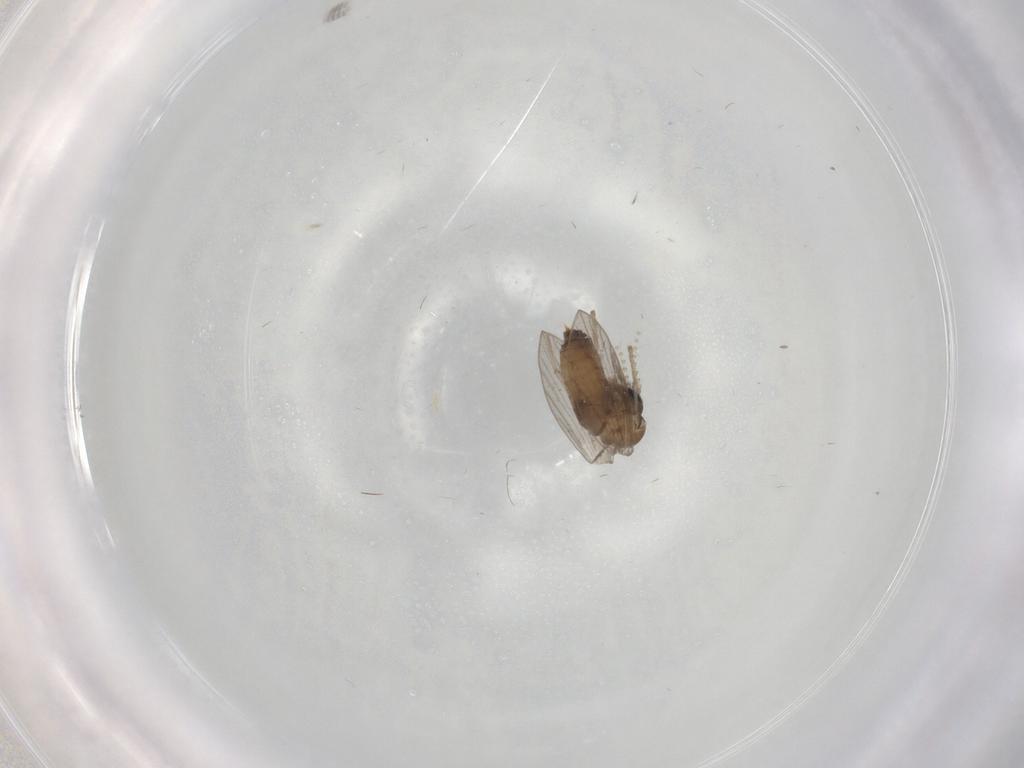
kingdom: Animalia
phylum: Arthropoda
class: Insecta
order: Diptera
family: Psychodidae
